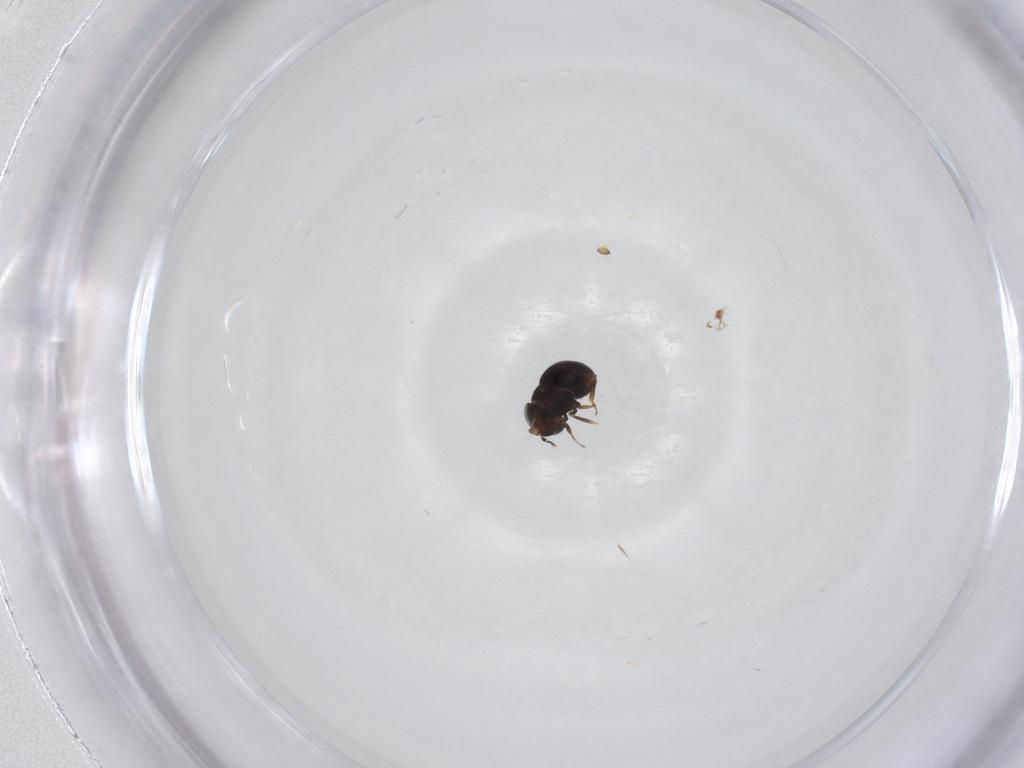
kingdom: Animalia
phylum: Arthropoda
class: Insecta
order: Hymenoptera
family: Scelionidae
